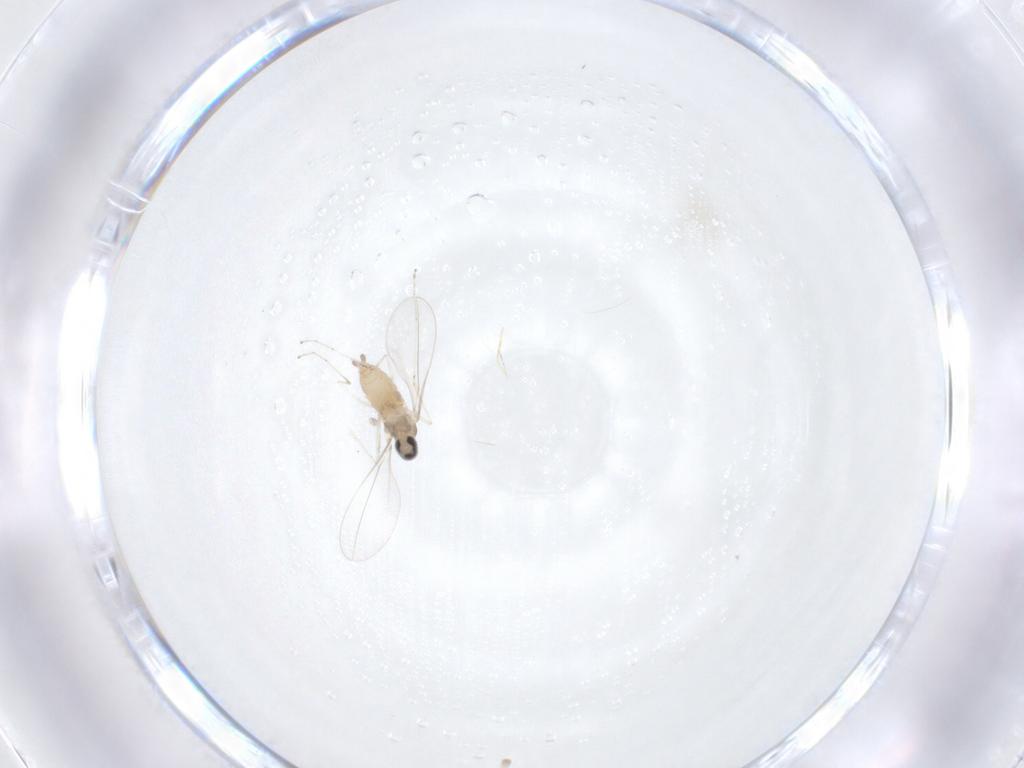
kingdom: Animalia
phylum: Arthropoda
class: Insecta
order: Diptera
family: Cecidomyiidae
